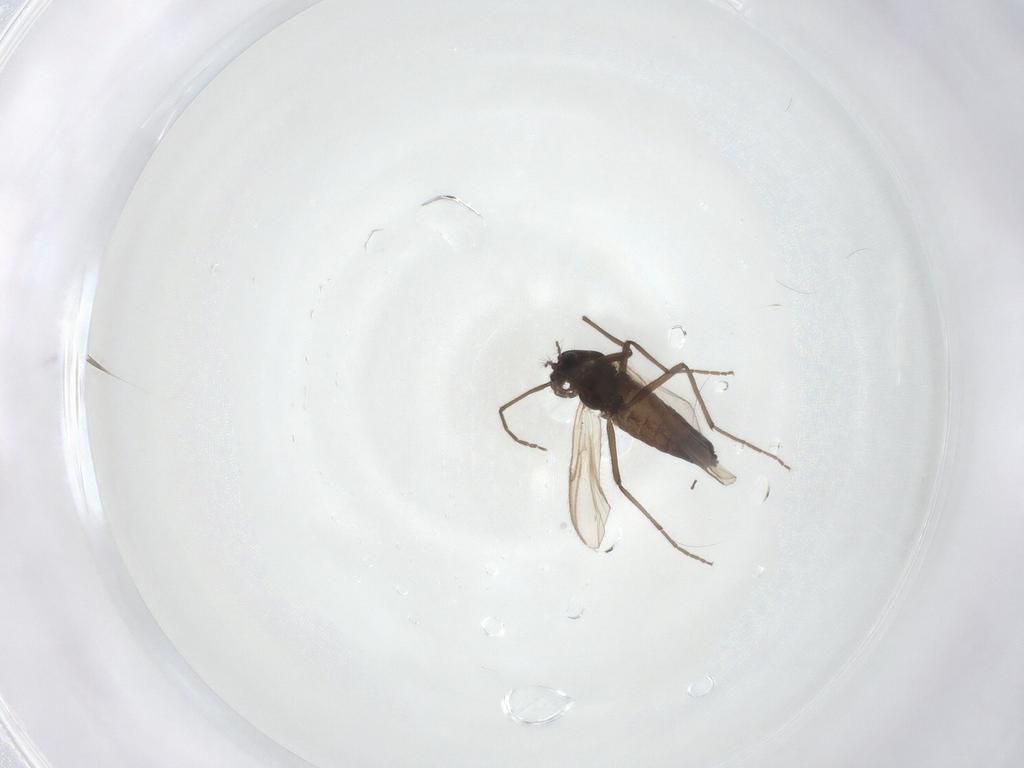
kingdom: Animalia
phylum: Arthropoda
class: Insecta
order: Diptera
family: Chironomidae
